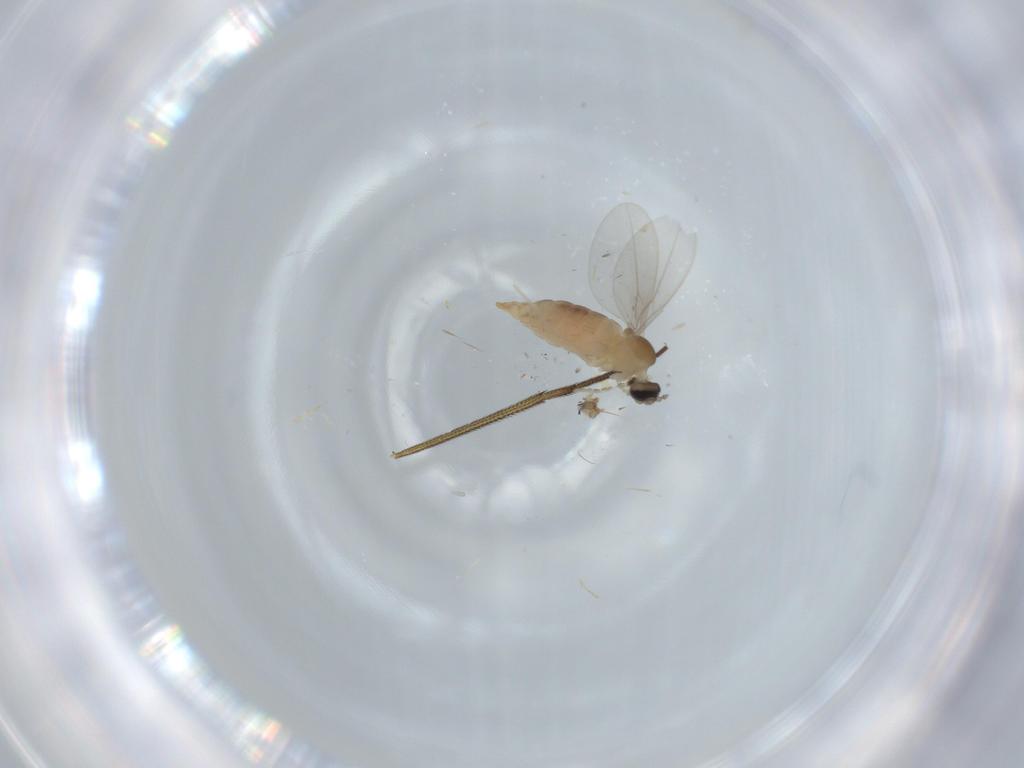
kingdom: Animalia
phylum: Arthropoda
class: Insecta
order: Diptera
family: Cecidomyiidae
